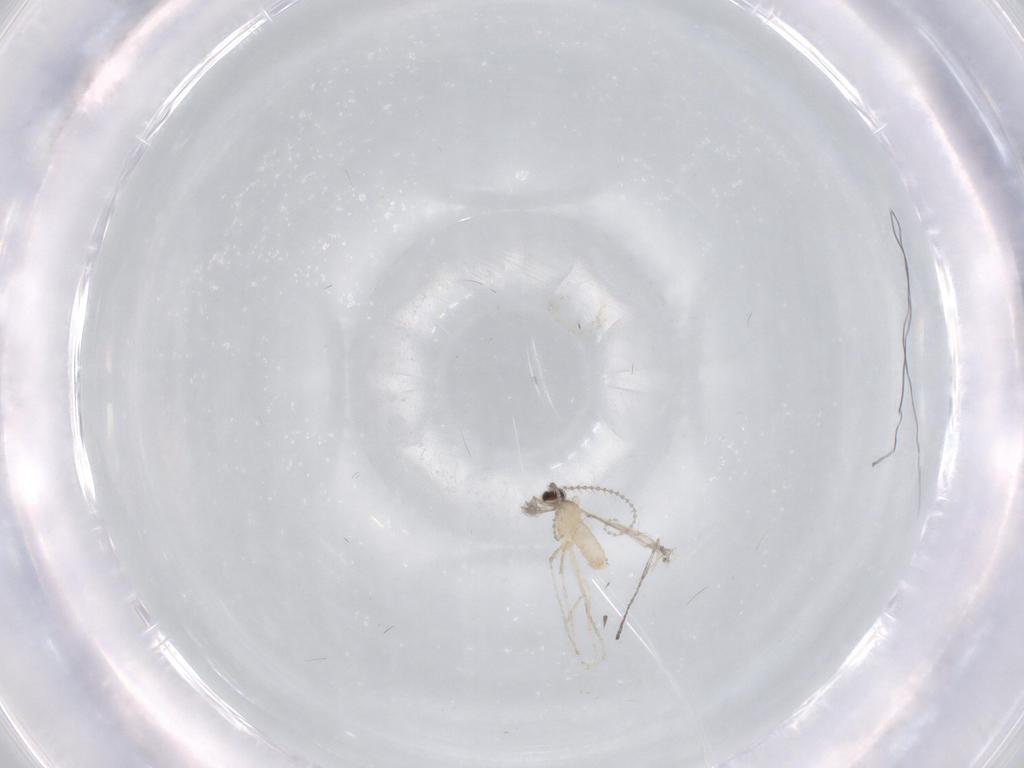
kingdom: Animalia
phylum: Arthropoda
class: Insecta
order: Diptera
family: Cecidomyiidae
